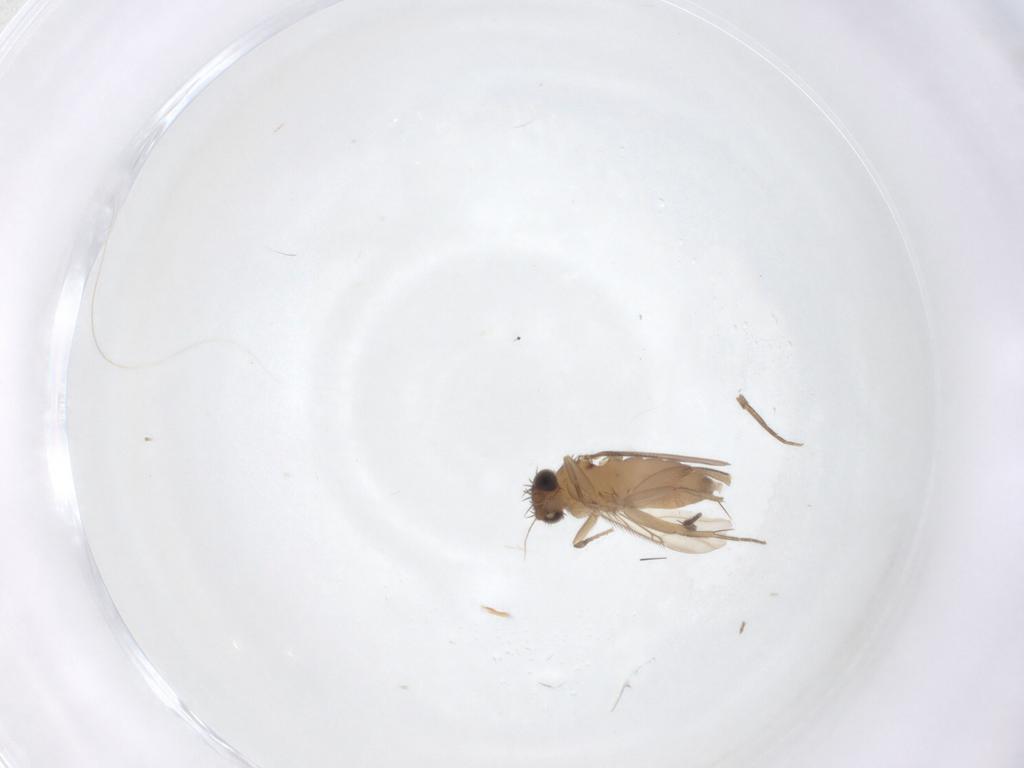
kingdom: Animalia
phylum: Arthropoda
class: Insecta
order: Diptera
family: Phoridae
